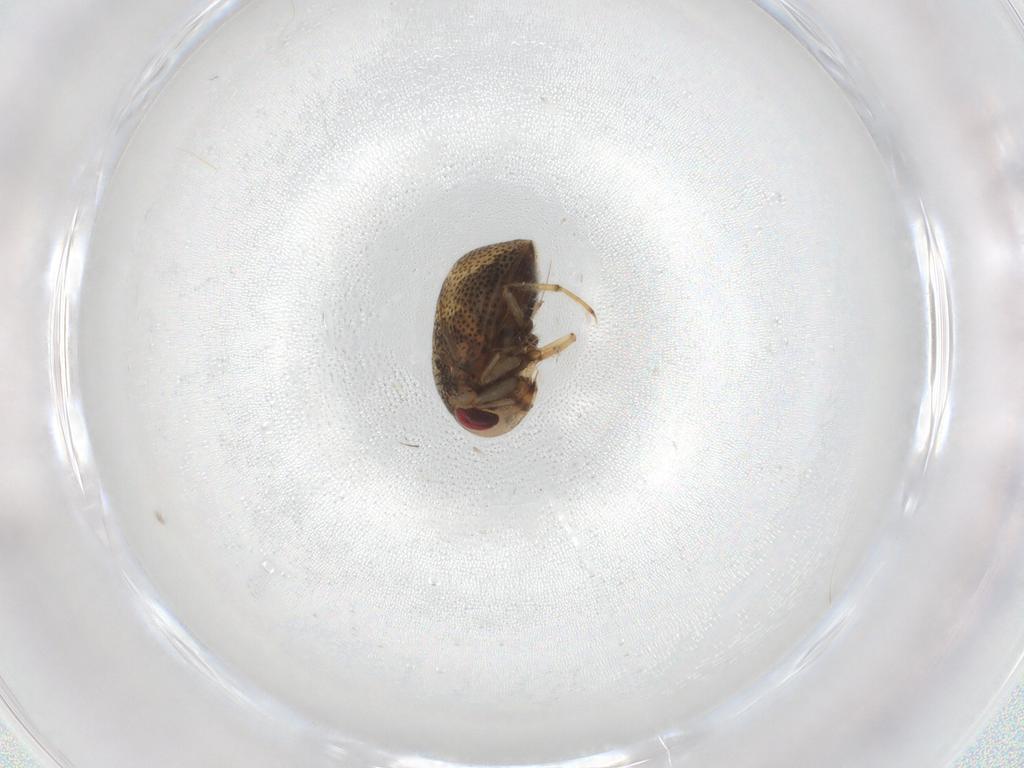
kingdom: Animalia
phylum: Arthropoda
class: Insecta
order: Hemiptera
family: Pleidae
